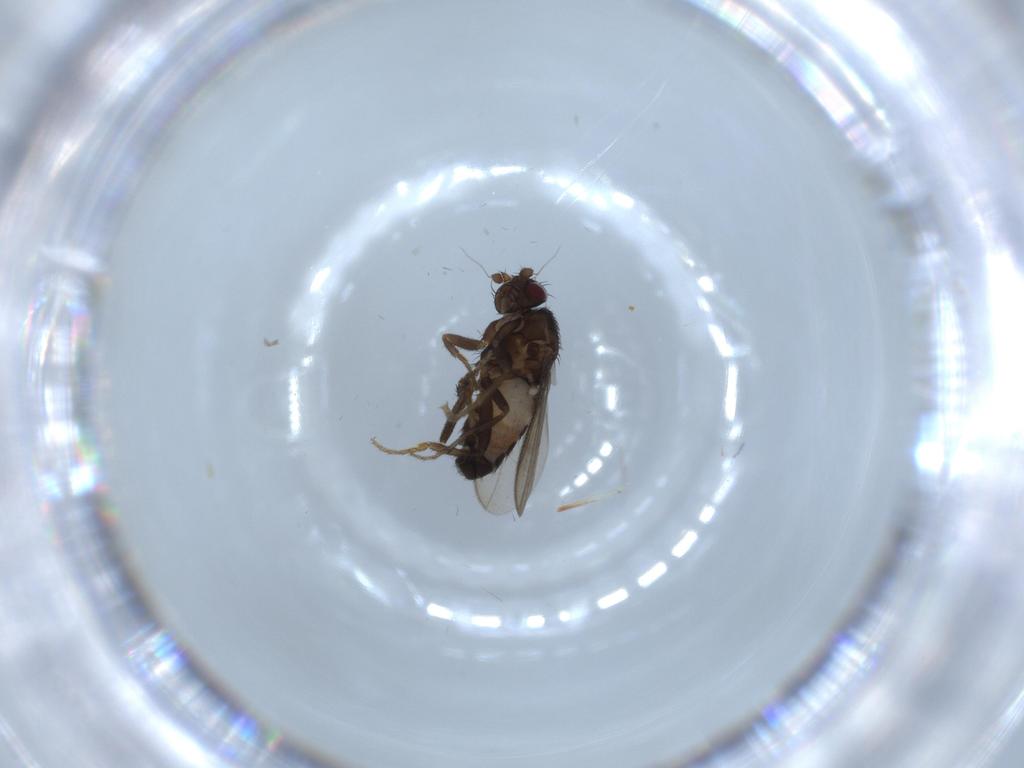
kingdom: Animalia
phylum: Arthropoda
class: Insecta
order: Diptera
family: Sphaeroceridae
